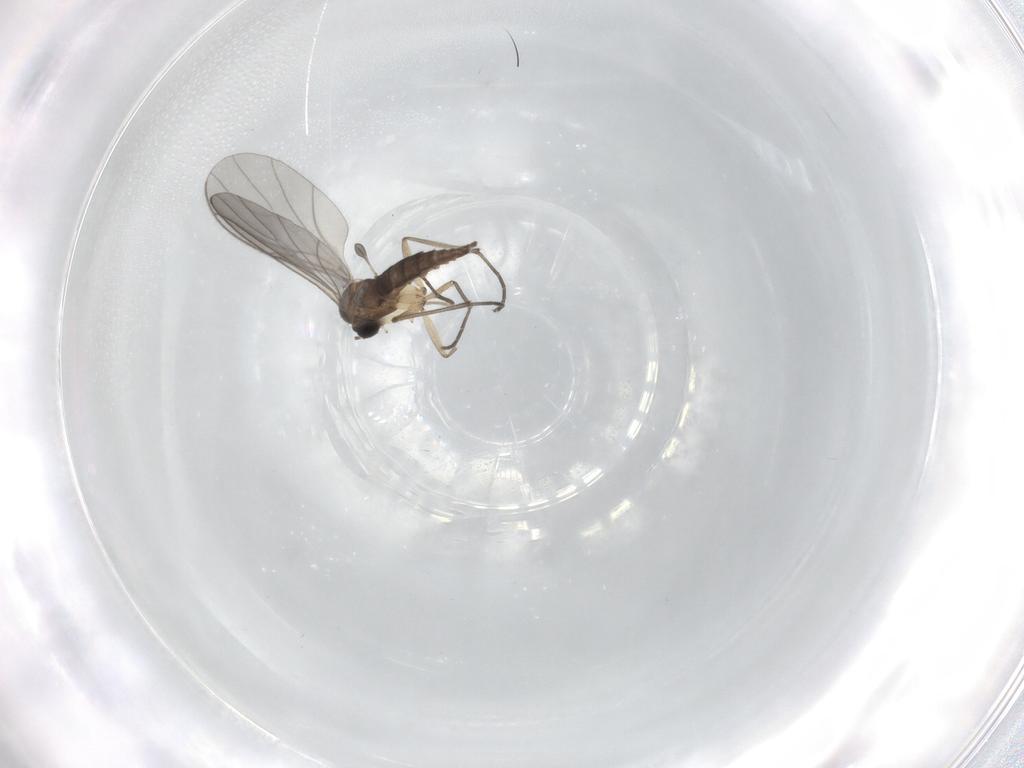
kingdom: Animalia
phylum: Arthropoda
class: Insecta
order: Diptera
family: Sciaridae
